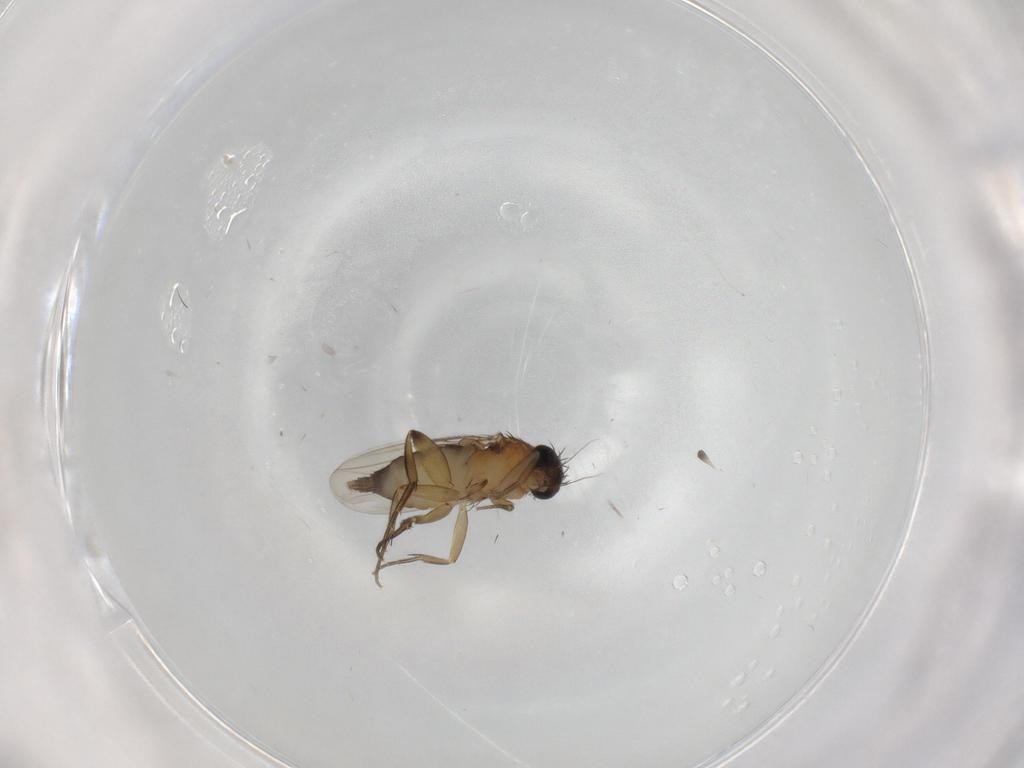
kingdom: Animalia
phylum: Arthropoda
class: Insecta
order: Diptera
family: Phoridae
